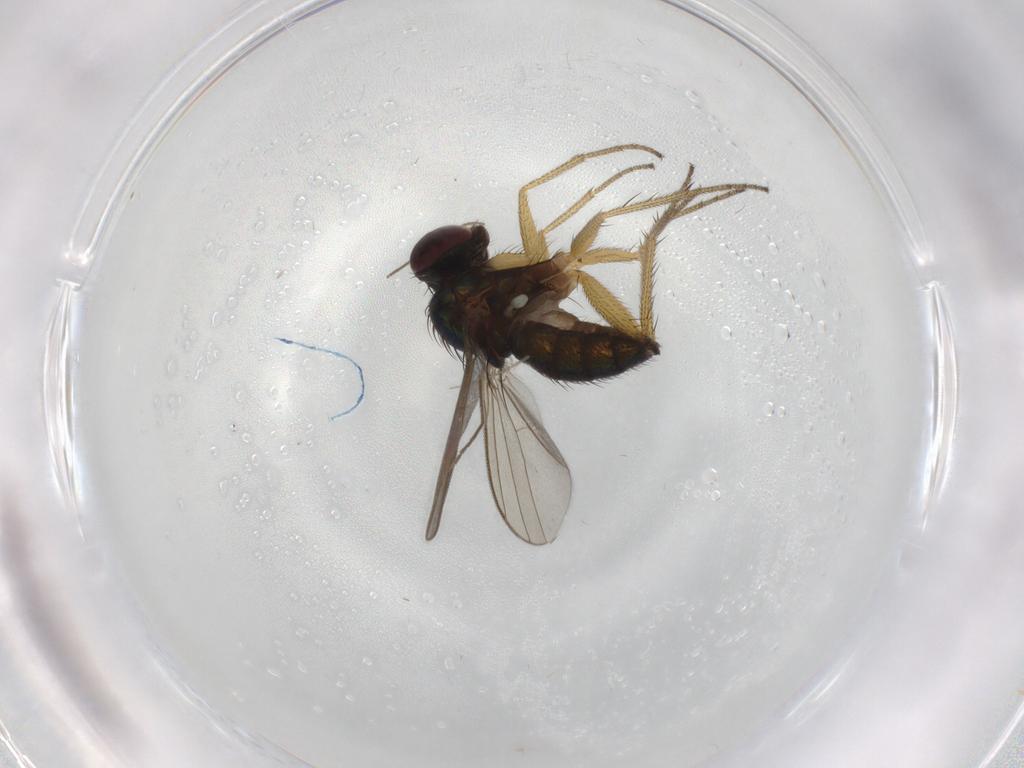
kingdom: Animalia
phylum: Arthropoda
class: Insecta
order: Diptera
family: Chironomidae
